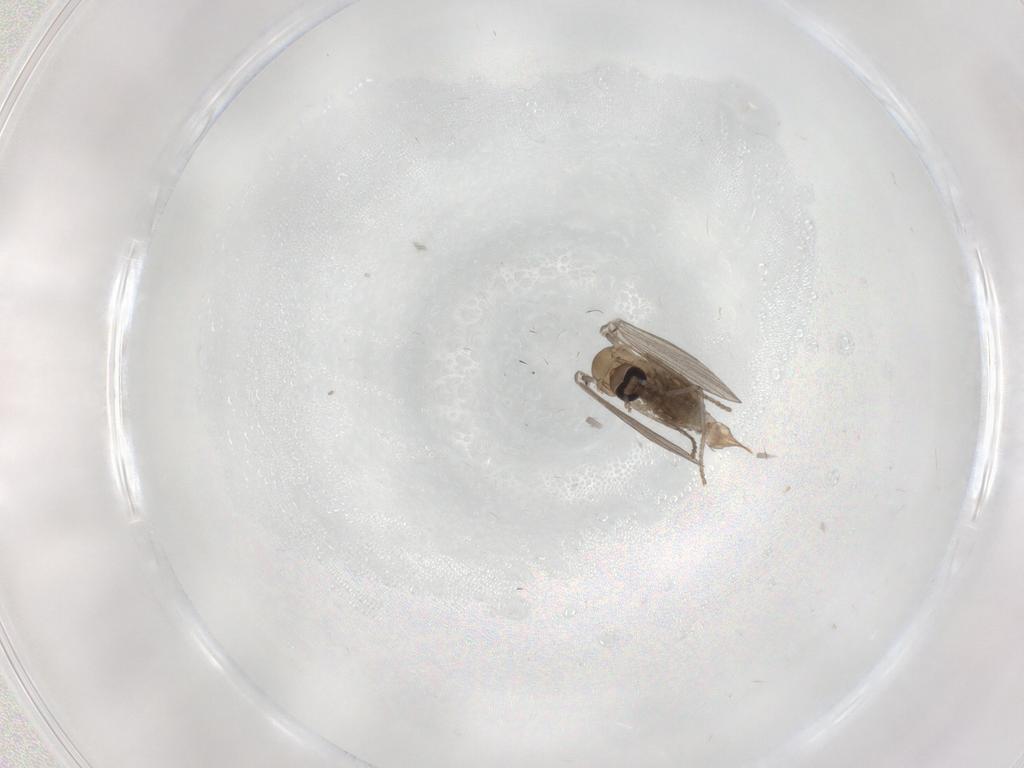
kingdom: Animalia
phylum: Arthropoda
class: Insecta
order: Diptera
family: Psychodidae
